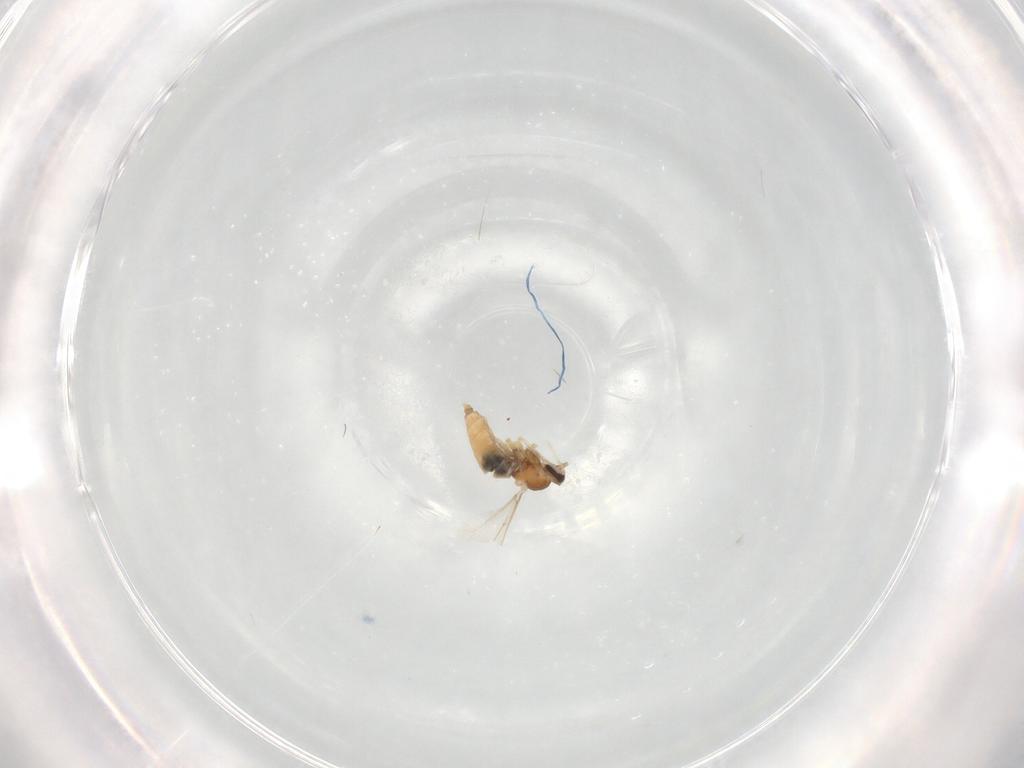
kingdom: Animalia
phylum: Arthropoda
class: Insecta
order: Diptera
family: Cecidomyiidae
